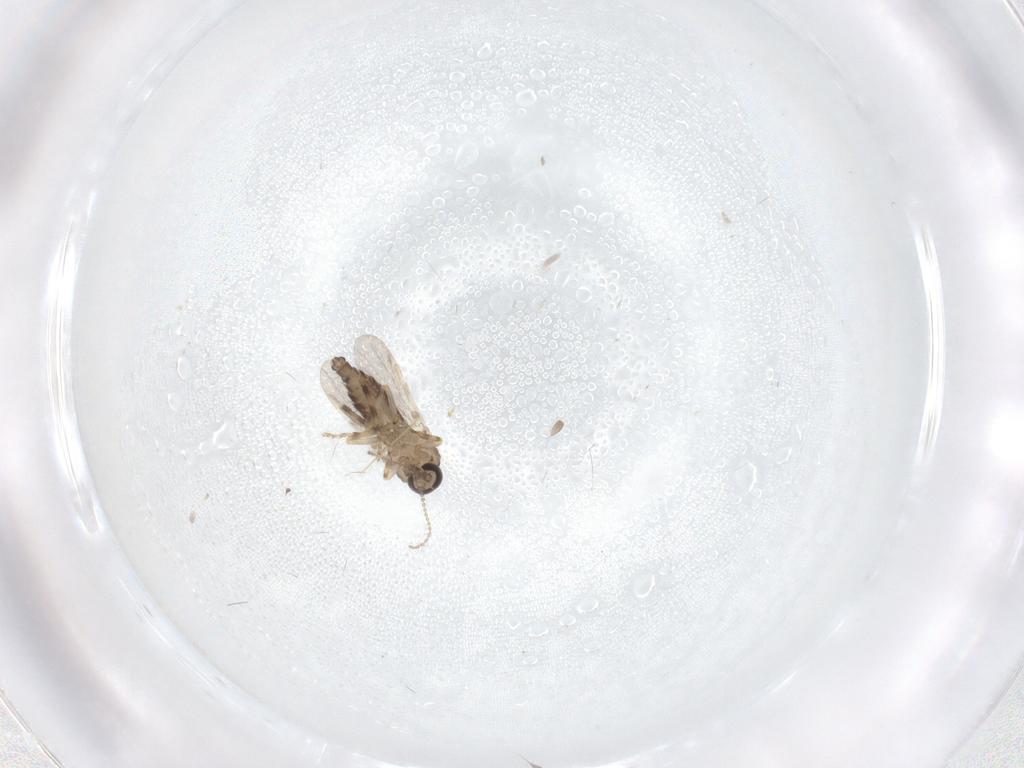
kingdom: Animalia
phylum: Arthropoda
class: Insecta
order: Diptera
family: Ceratopogonidae
